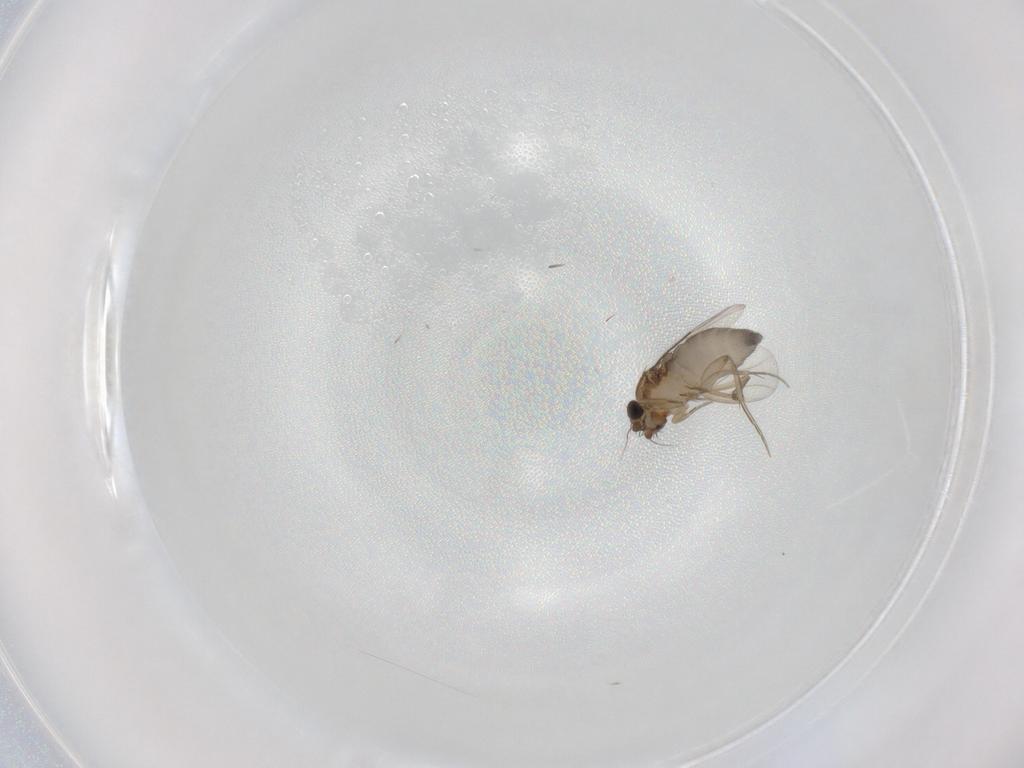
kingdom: Animalia
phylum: Arthropoda
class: Insecta
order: Diptera
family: Phoridae
